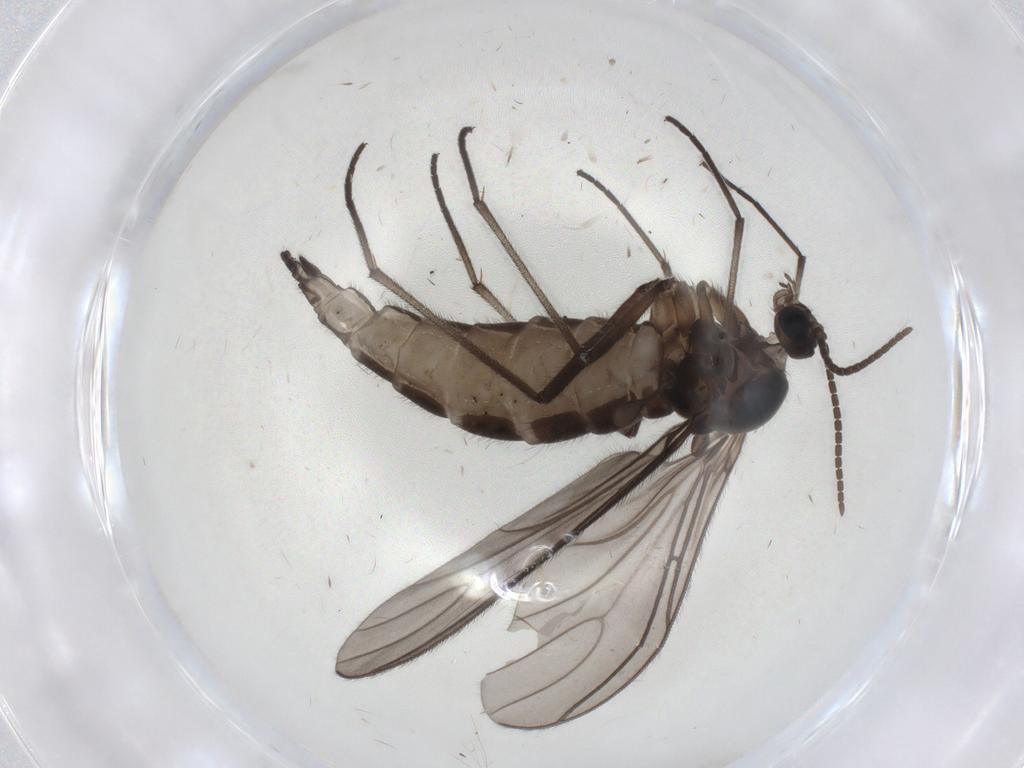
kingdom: Animalia
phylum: Arthropoda
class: Insecta
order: Diptera
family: Sciaridae
